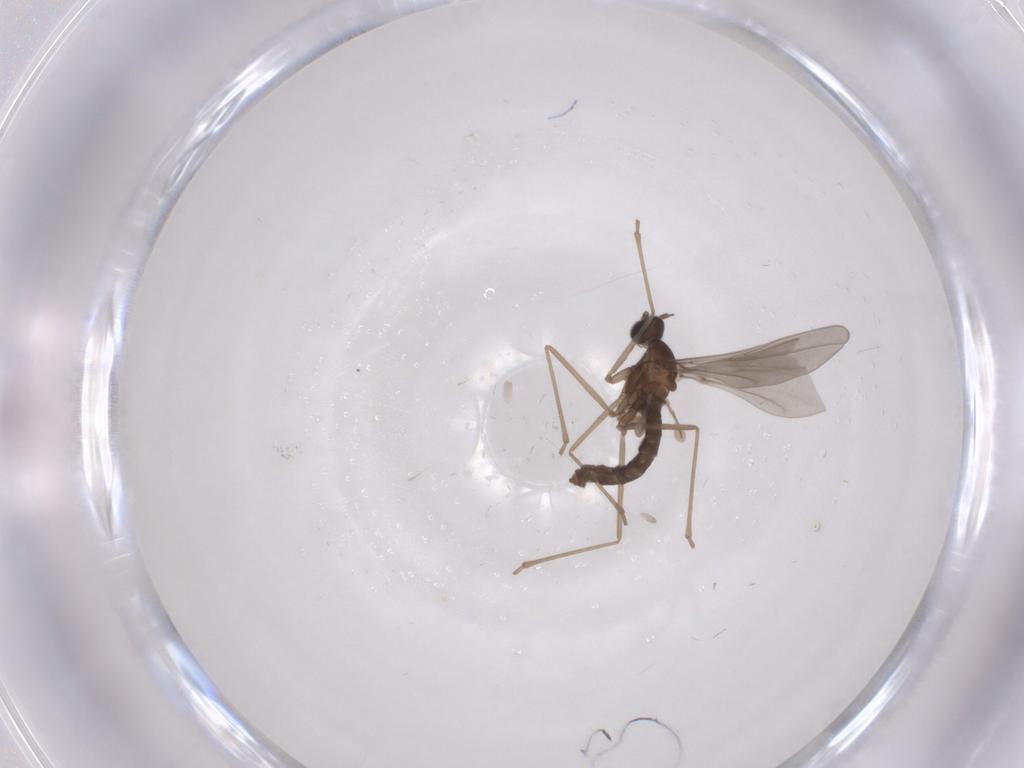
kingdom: Animalia
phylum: Arthropoda
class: Insecta
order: Diptera
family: Cecidomyiidae
